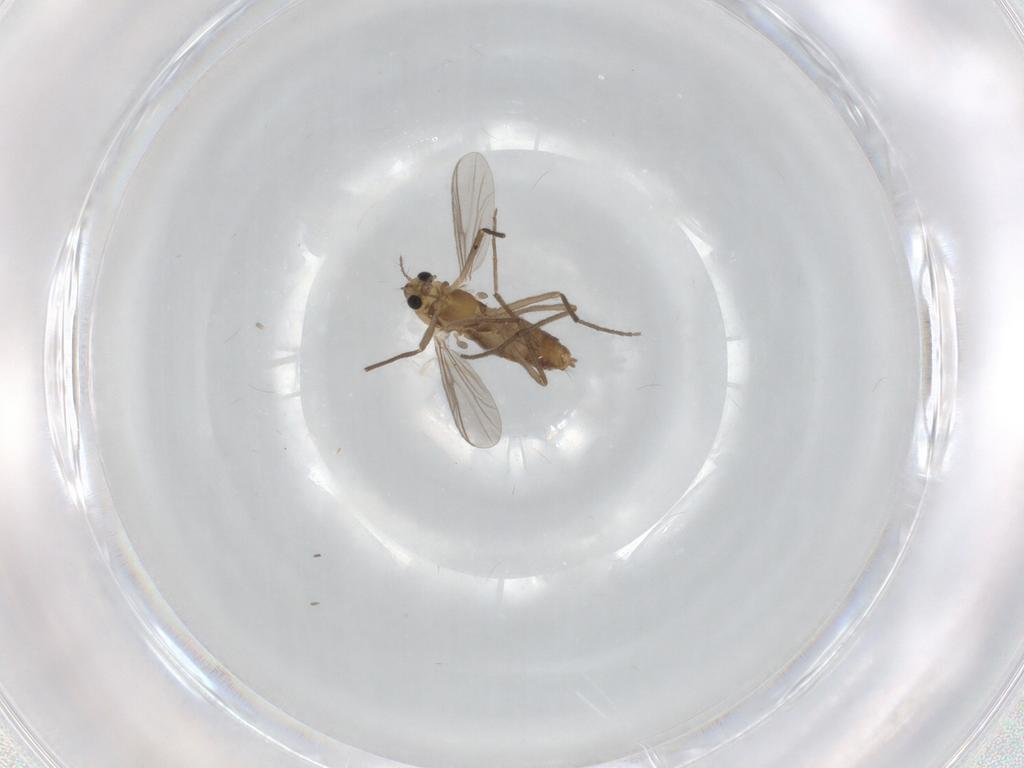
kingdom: Animalia
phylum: Arthropoda
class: Insecta
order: Diptera
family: Chironomidae
